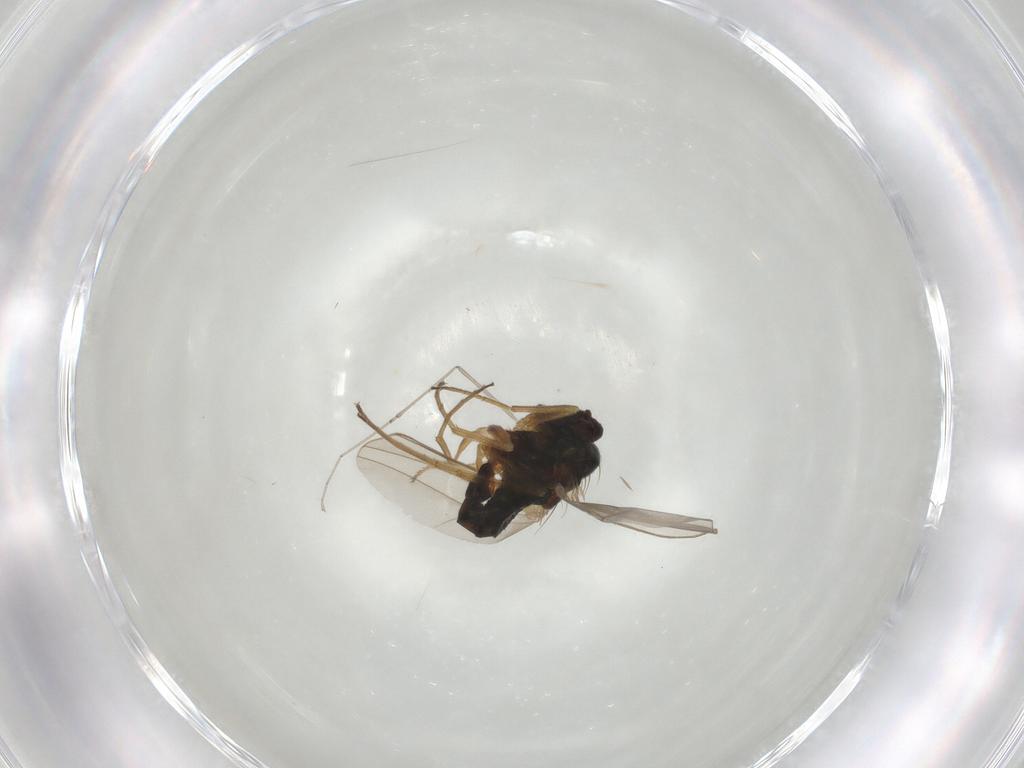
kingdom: Animalia
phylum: Arthropoda
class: Insecta
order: Diptera
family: Dolichopodidae
